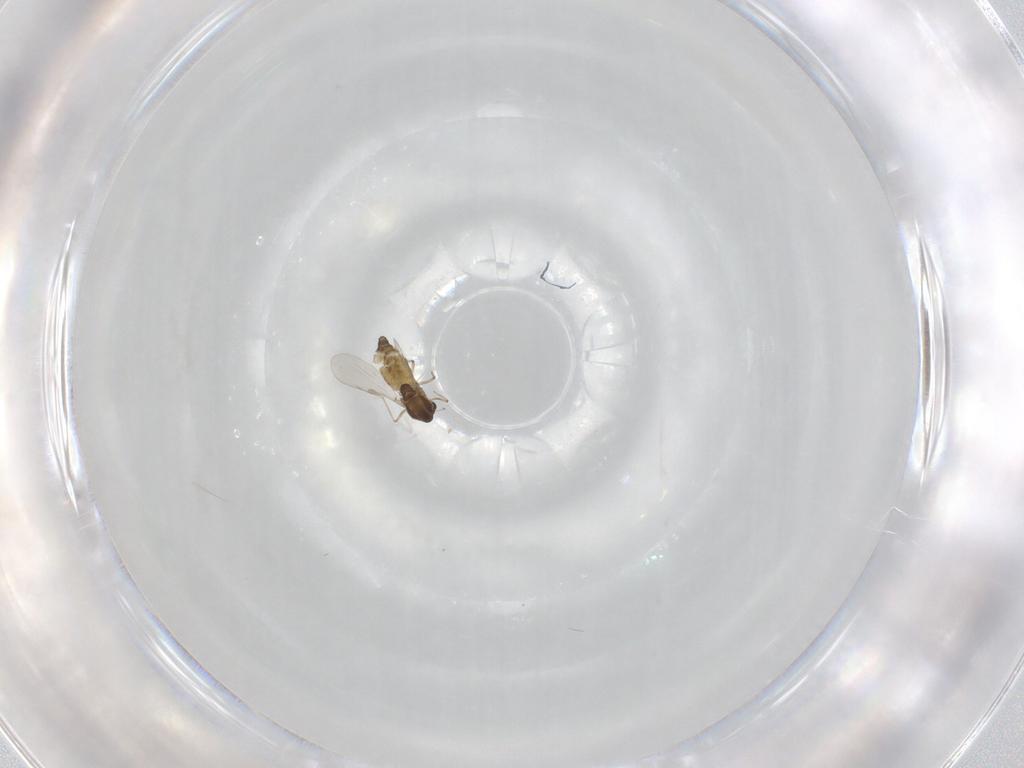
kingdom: Animalia
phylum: Arthropoda
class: Insecta
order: Diptera
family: Chironomidae
